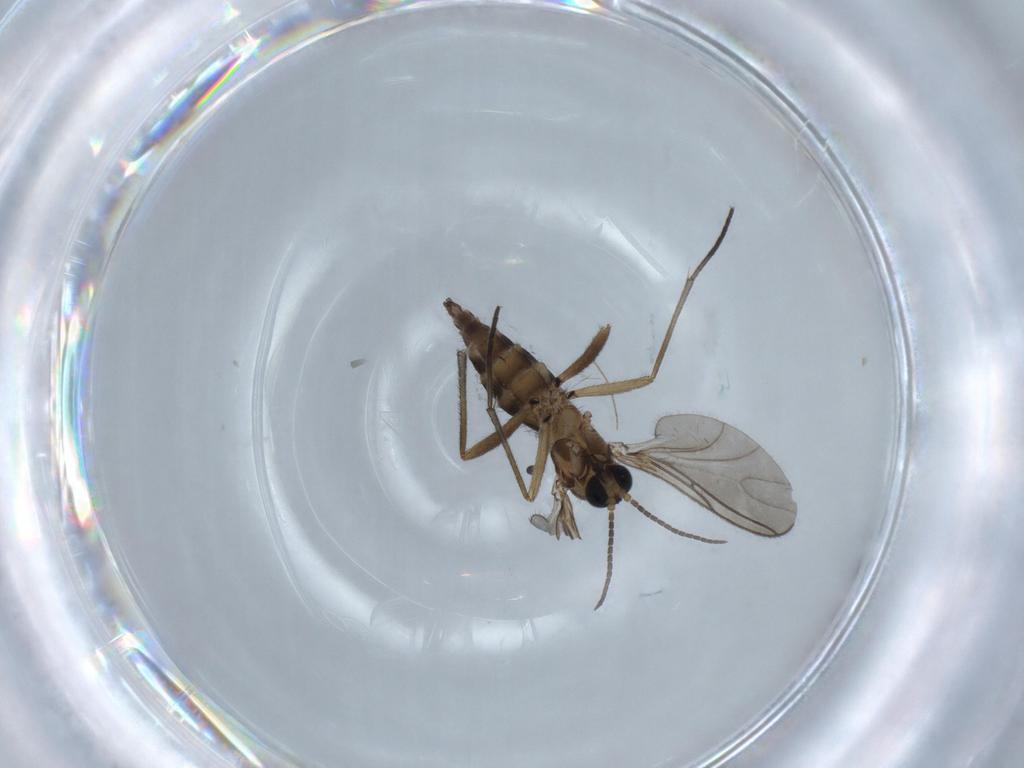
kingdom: Animalia
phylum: Arthropoda
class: Insecta
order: Diptera
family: Sciaridae
